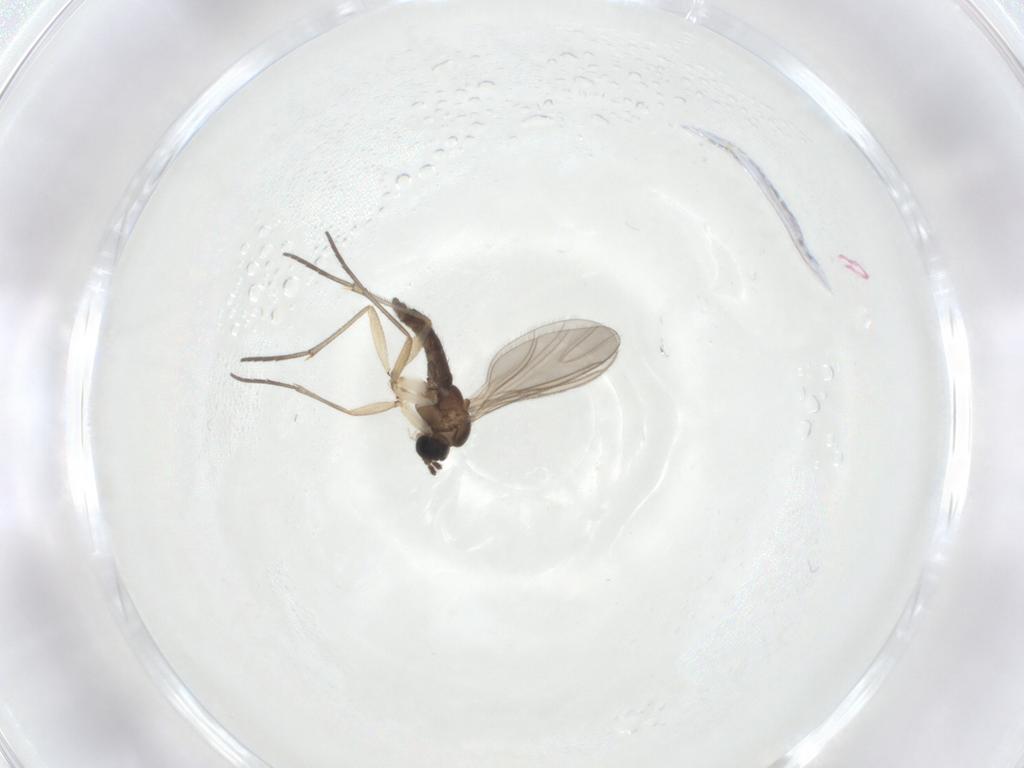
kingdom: Animalia
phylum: Arthropoda
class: Insecta
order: Diptera
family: Sciaridae
